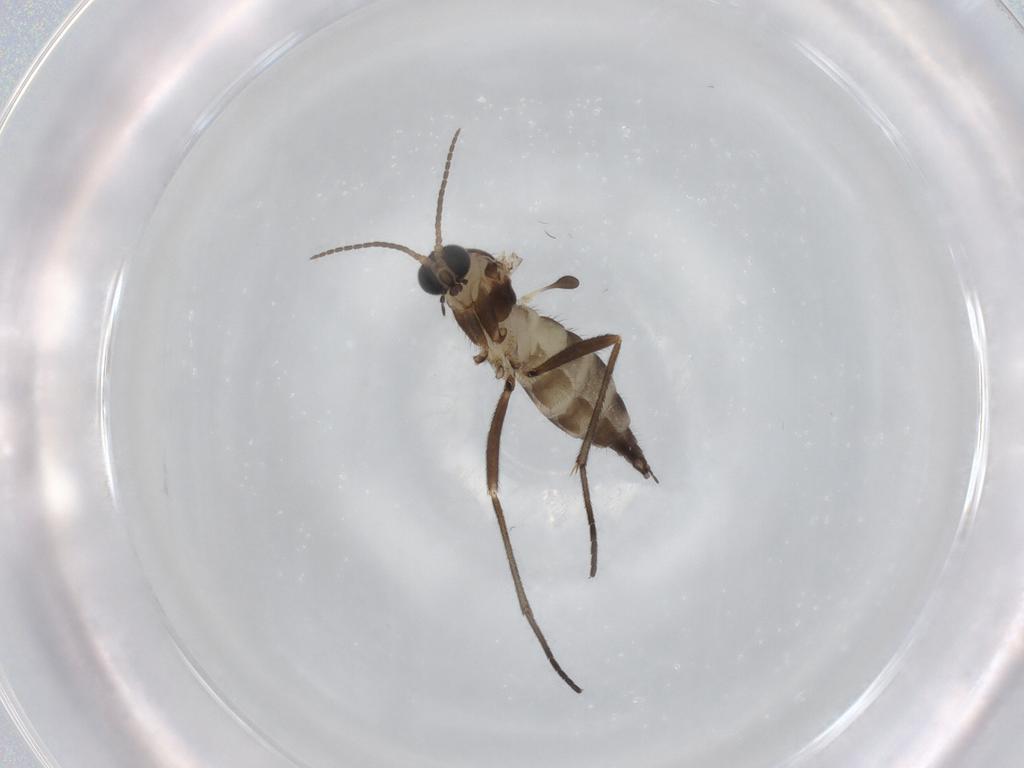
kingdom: Animalia
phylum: Arthropoda
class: Insecta
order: Diptera
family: Sciaridae
